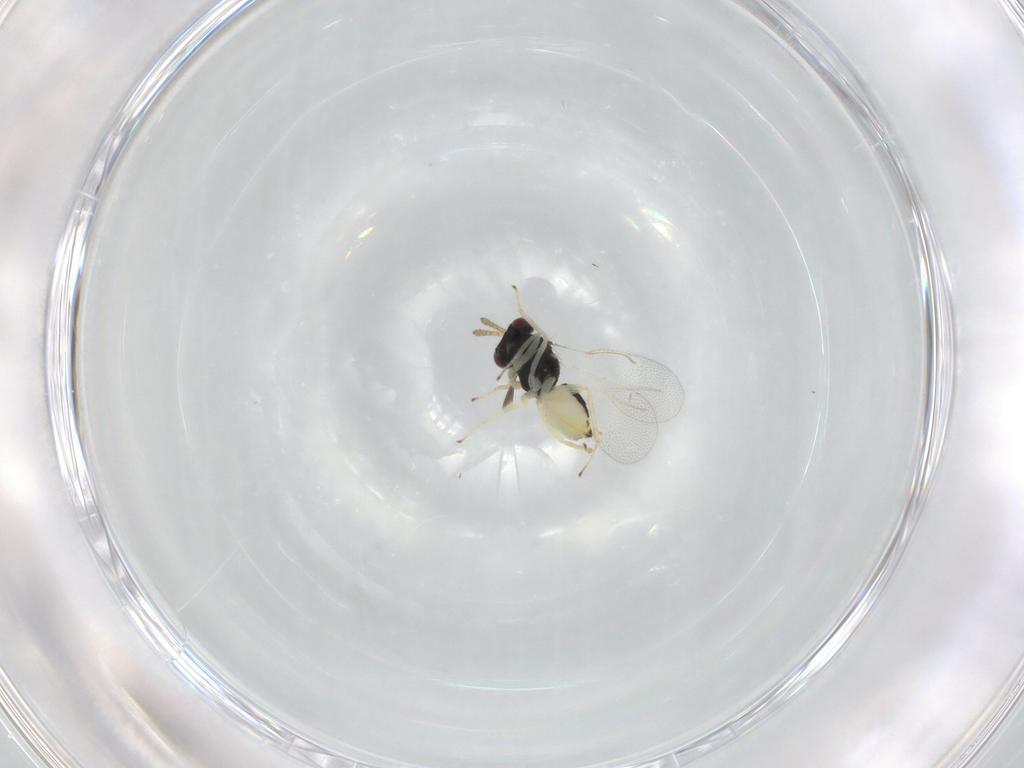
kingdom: Animalia
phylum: Arthropoda
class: Insecta
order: Hymenoptera
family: Eulophidae
